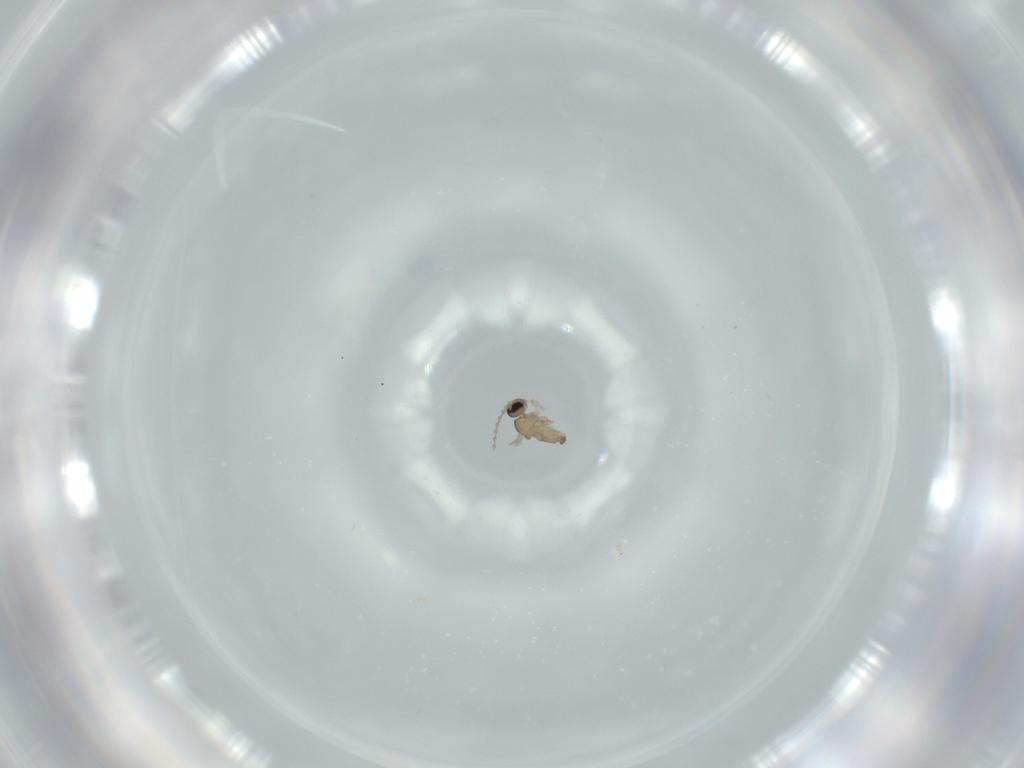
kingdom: Animalia
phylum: Arthropoda
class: Insecta
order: Diptera
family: Cecidomyiidae
